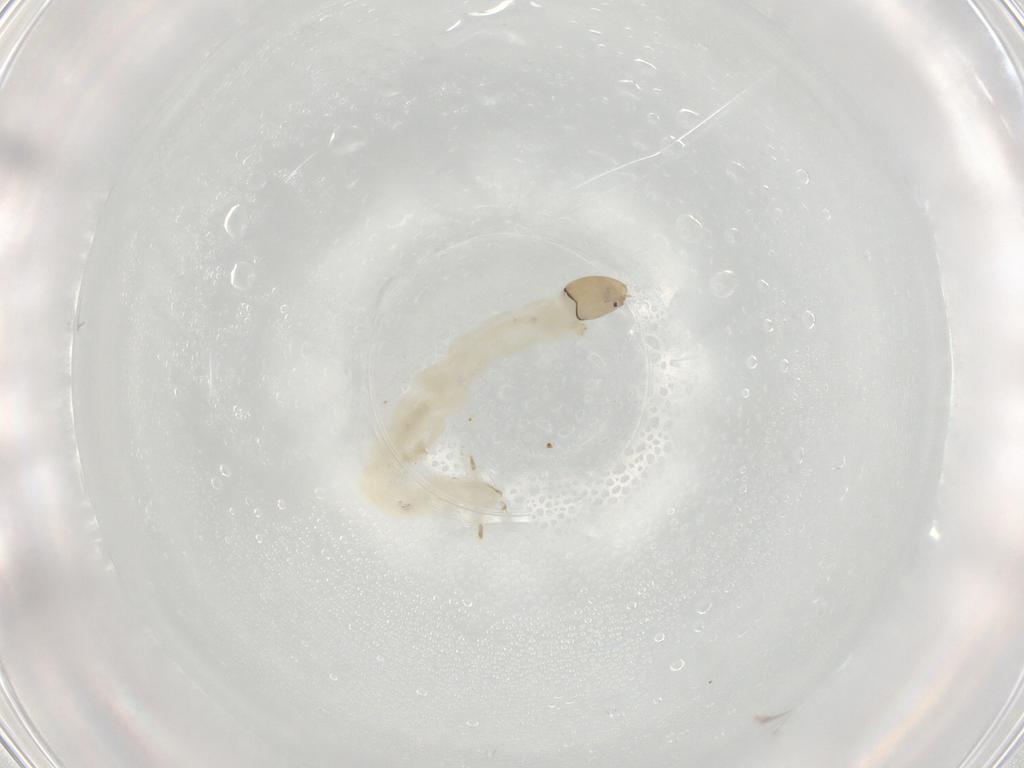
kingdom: Animalia
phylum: Arthropoda
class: Insecta
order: Diptera
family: Chironomidae
